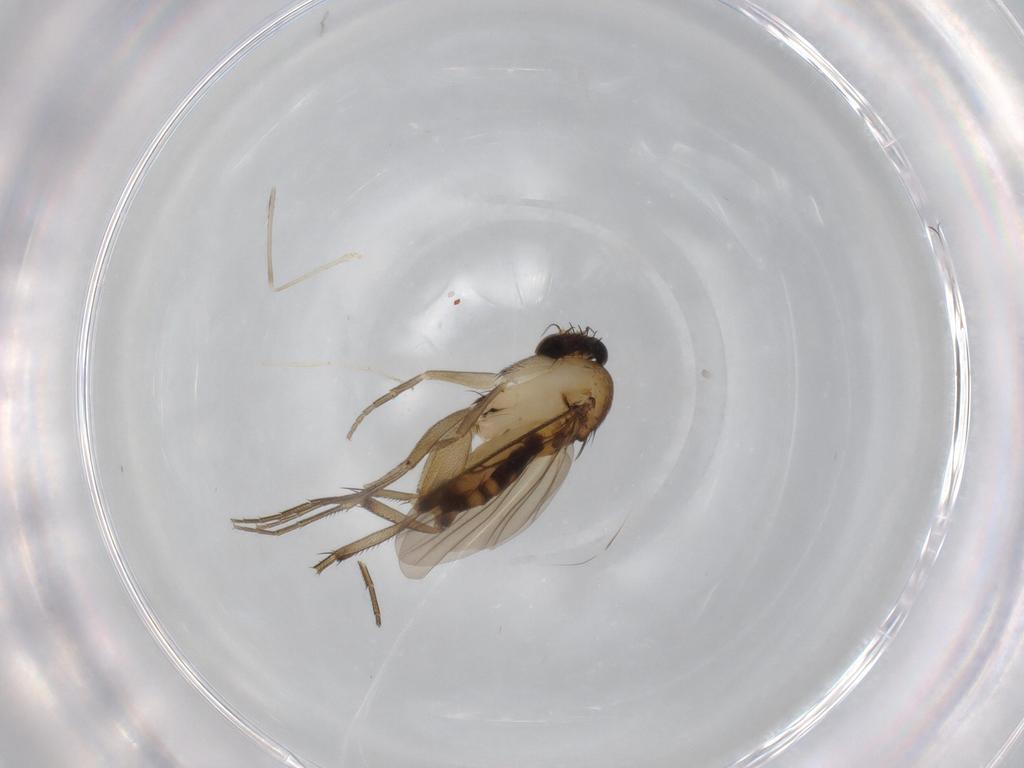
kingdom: Animalia
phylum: Arthropoda
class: Insecta
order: Diptera
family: Phoridae
